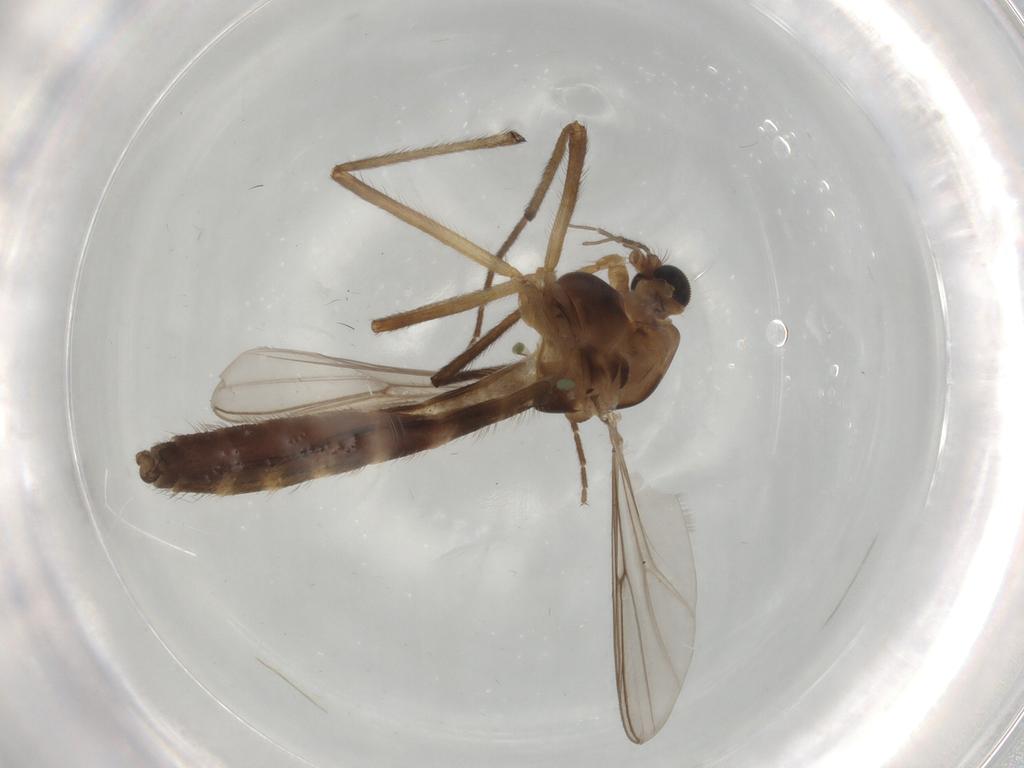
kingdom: Animalia
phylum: Arthropoda
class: Insecta
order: Diptera
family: Chironomidae
